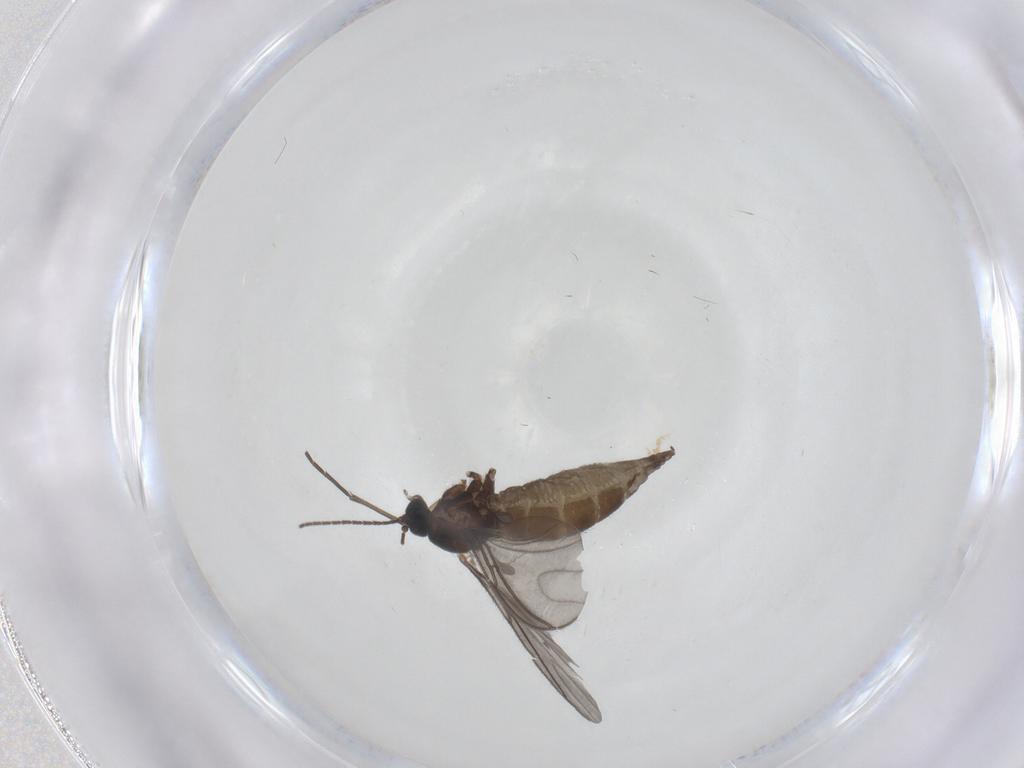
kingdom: Animalia
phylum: Arthropoda
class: Insecta
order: Diptera
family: Sciaridae
